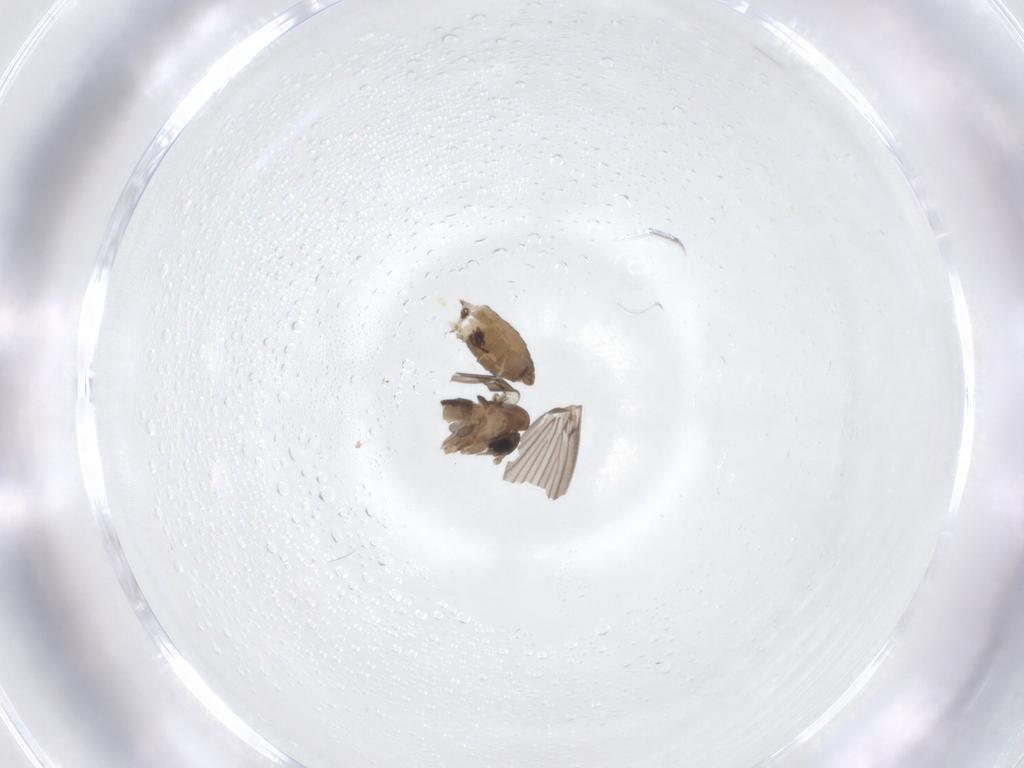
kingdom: Animalia
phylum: Arthropoda
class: Insecta
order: Diptera
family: Psychodidae
